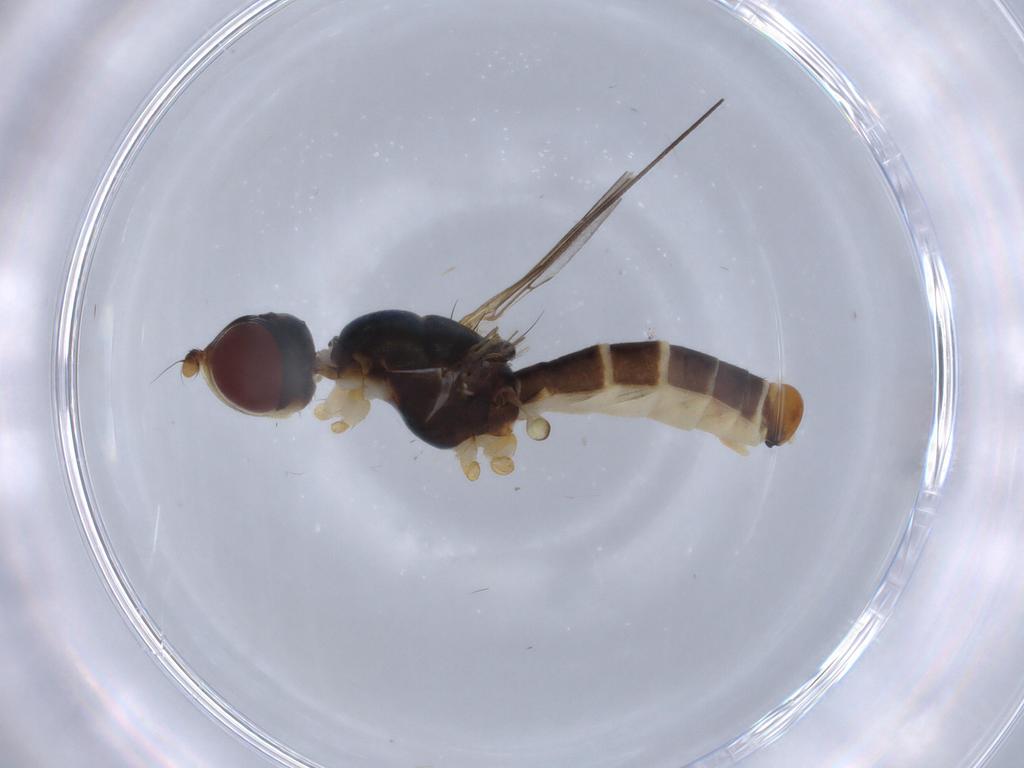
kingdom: Animalia
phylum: Arthropoda
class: Insecta
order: Diptera
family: Micropezidae
